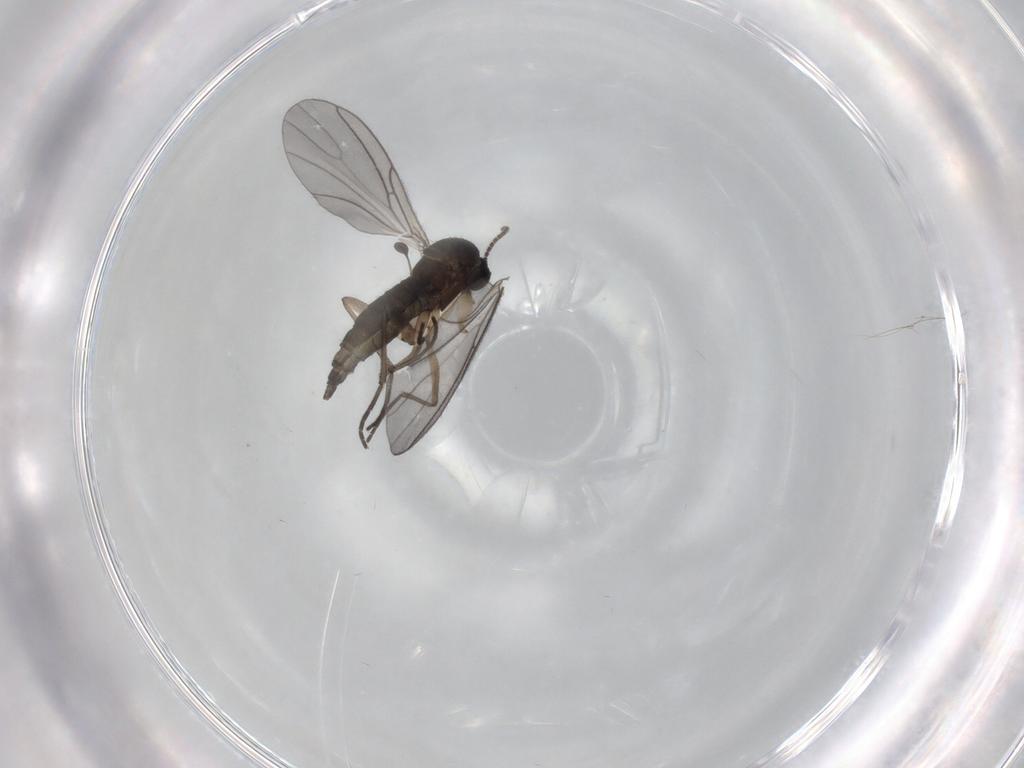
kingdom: Animalia
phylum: Arthropoda
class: Insecta
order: Diptera
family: Sciaridae
